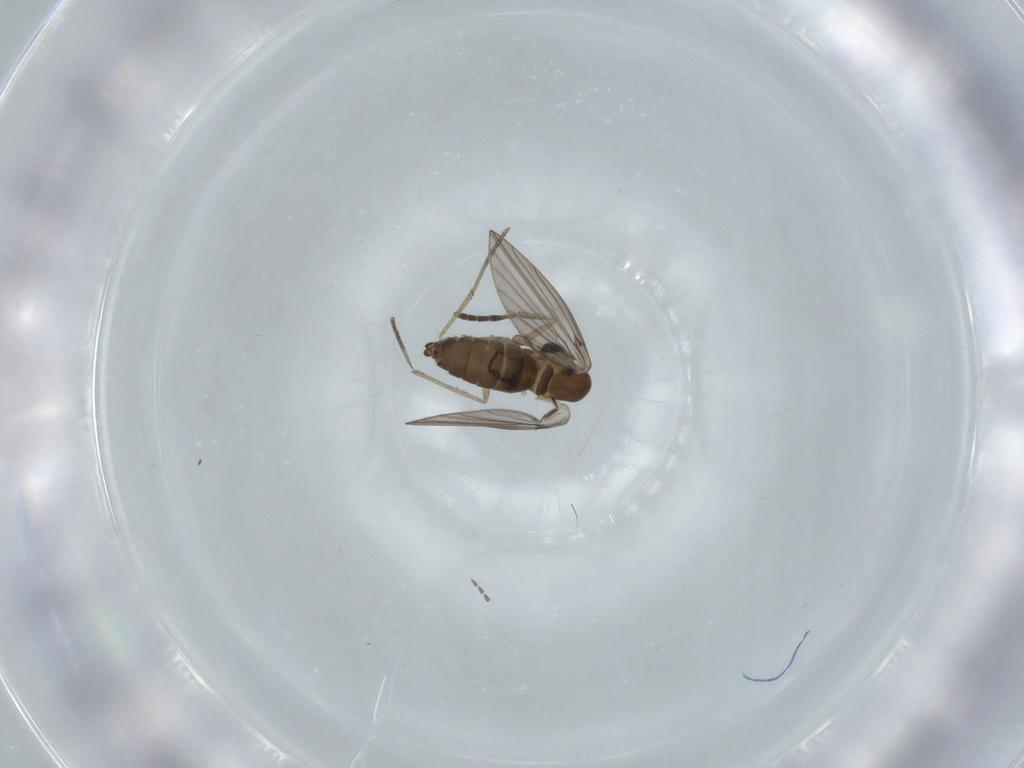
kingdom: Animalia
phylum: Arthropoda
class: Insecta
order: Diptera
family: Psychodidae
